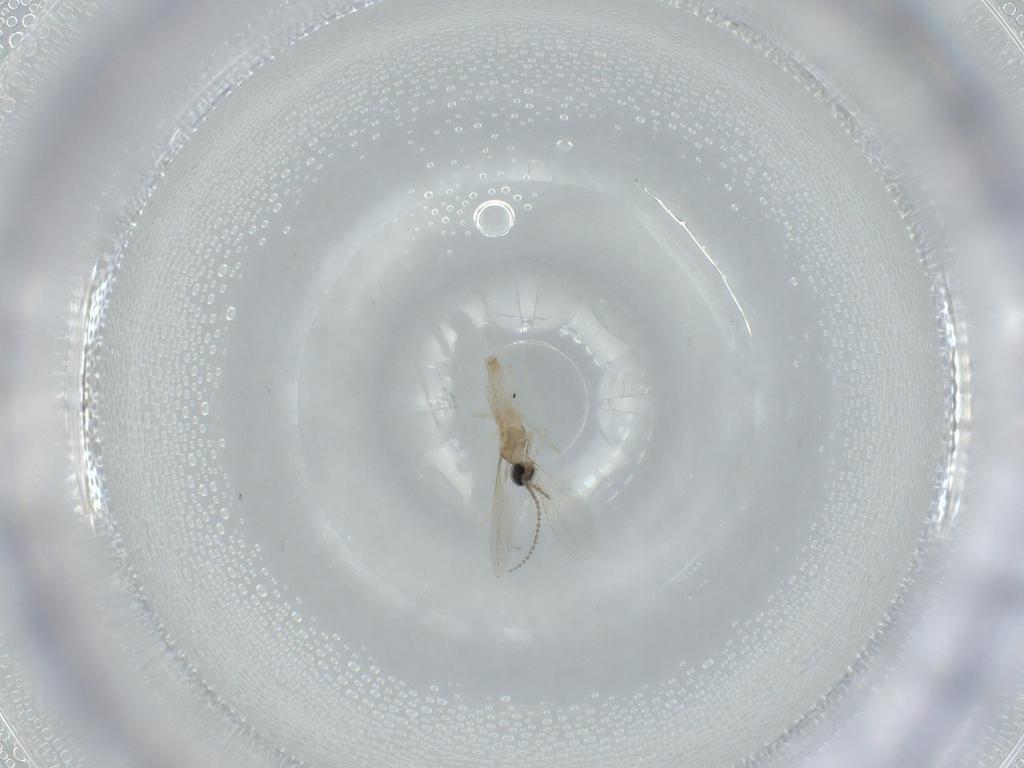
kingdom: Animalia
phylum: Arthropoda
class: Insecta
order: Diptera
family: Cecidomyiidae
